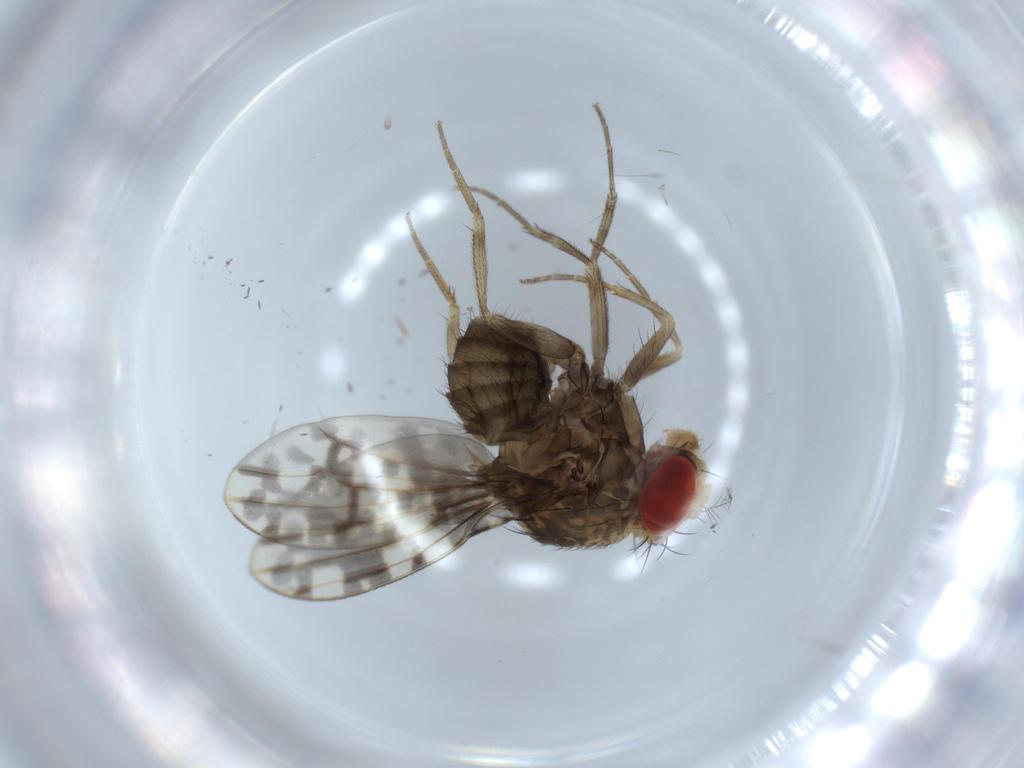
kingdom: Animalia
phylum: Arthropoda
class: Insecta
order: Diptera
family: Drosophilidae
